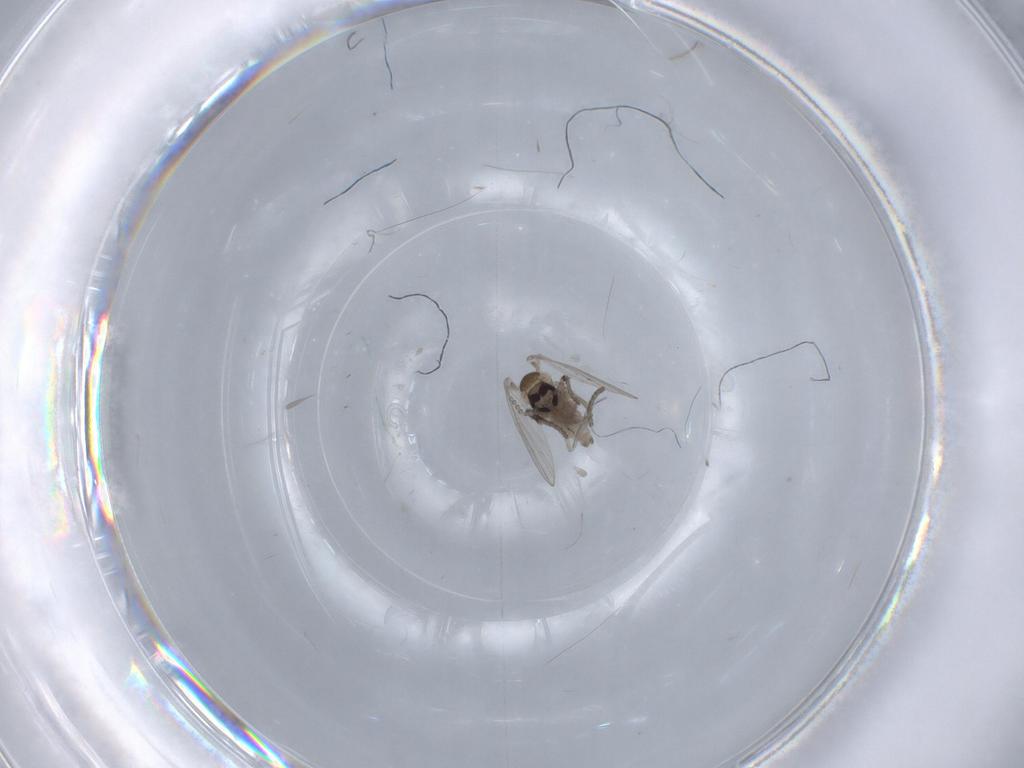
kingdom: Animalia
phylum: Arthropoda
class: Insecta
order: Diptera
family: Psychodidae
